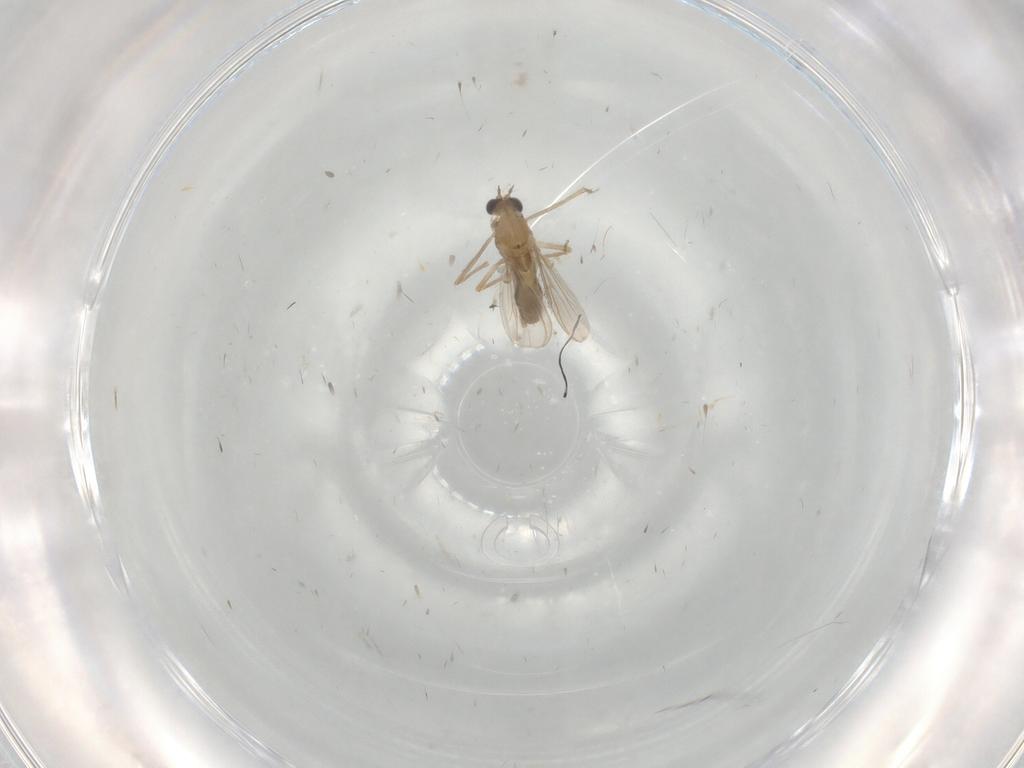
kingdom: Animalia
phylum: Arthropoda
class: Insecta
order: Diptera
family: Chironomidae
